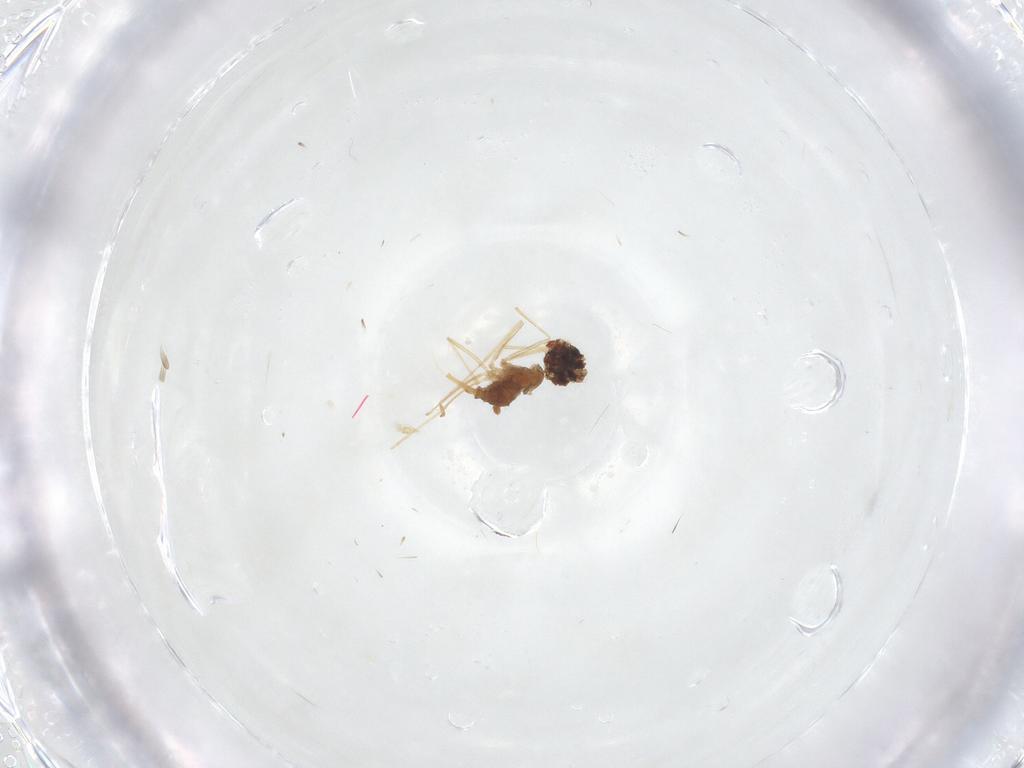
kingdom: Animalia
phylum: Arthropoda
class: Insecta
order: Diptera
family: Cecidomyiidae
